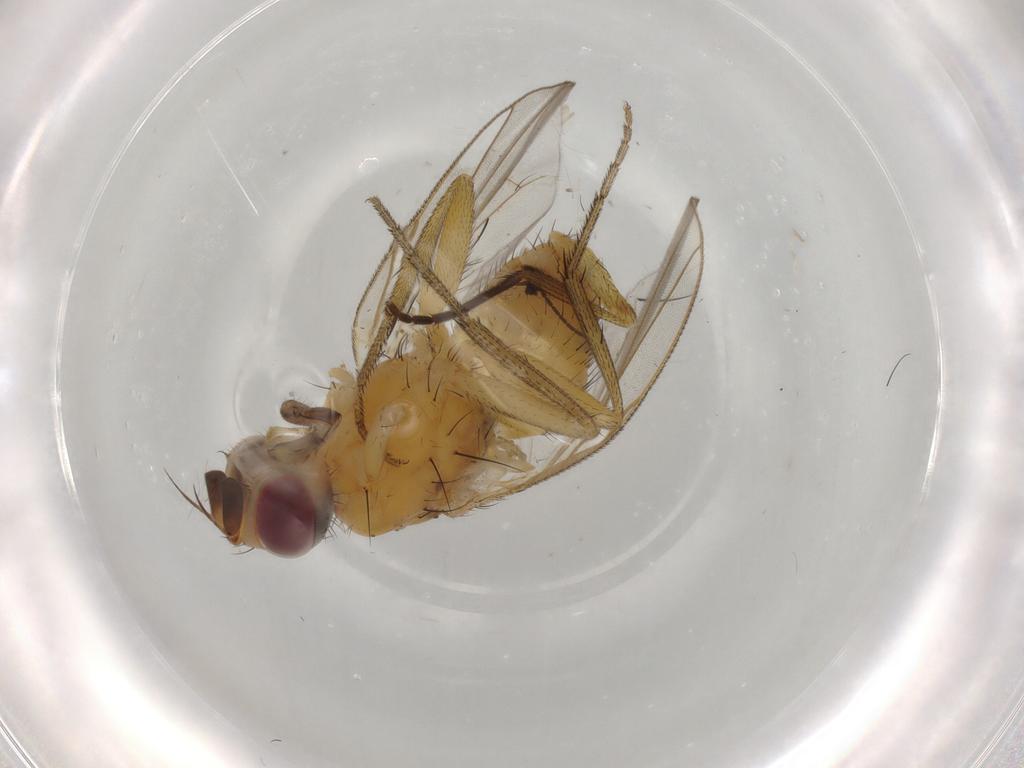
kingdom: Animalia
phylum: Arthropoda
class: Insecta
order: Diptera
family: Muscidae
